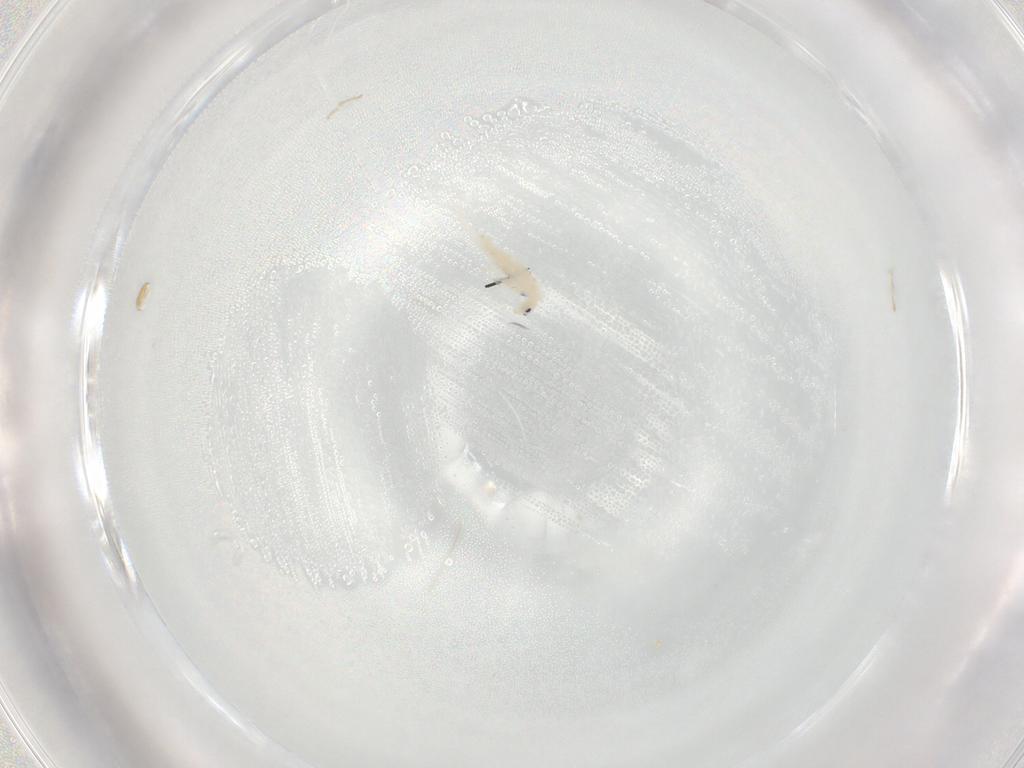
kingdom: Animalia
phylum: Arthropoda
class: Collembola
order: Entomobryomorpha
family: Entomobryidae
